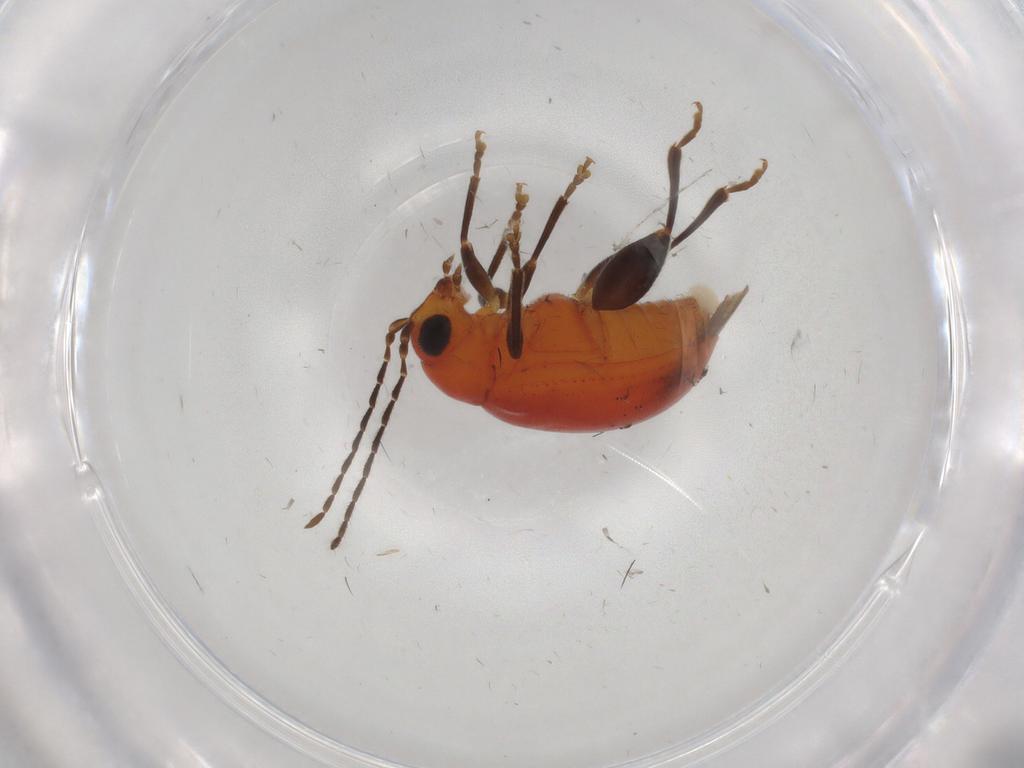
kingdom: Animalia
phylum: Arthropoda
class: Insecta
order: Coleoptera
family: Chrysomelidae
